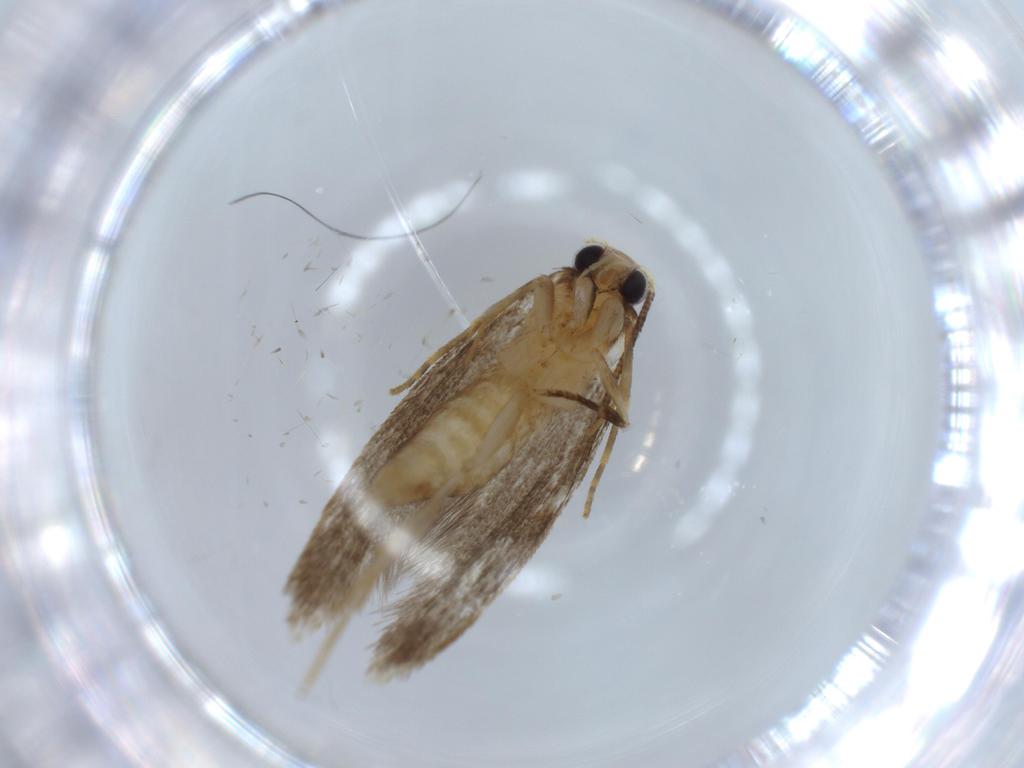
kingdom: Animalia
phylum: Arthropoda
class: Insecta
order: Lepidoptera
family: Tineidae
